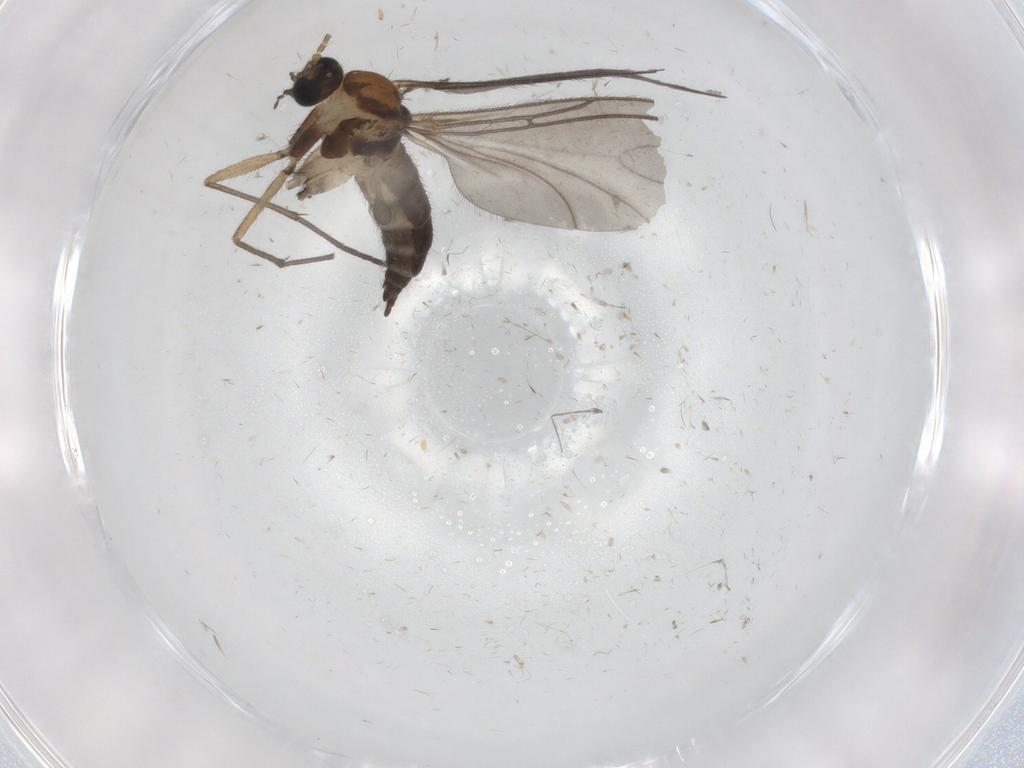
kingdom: Animalia
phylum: Arthropoda
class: Insecta
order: Diptera
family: Sciaridae
